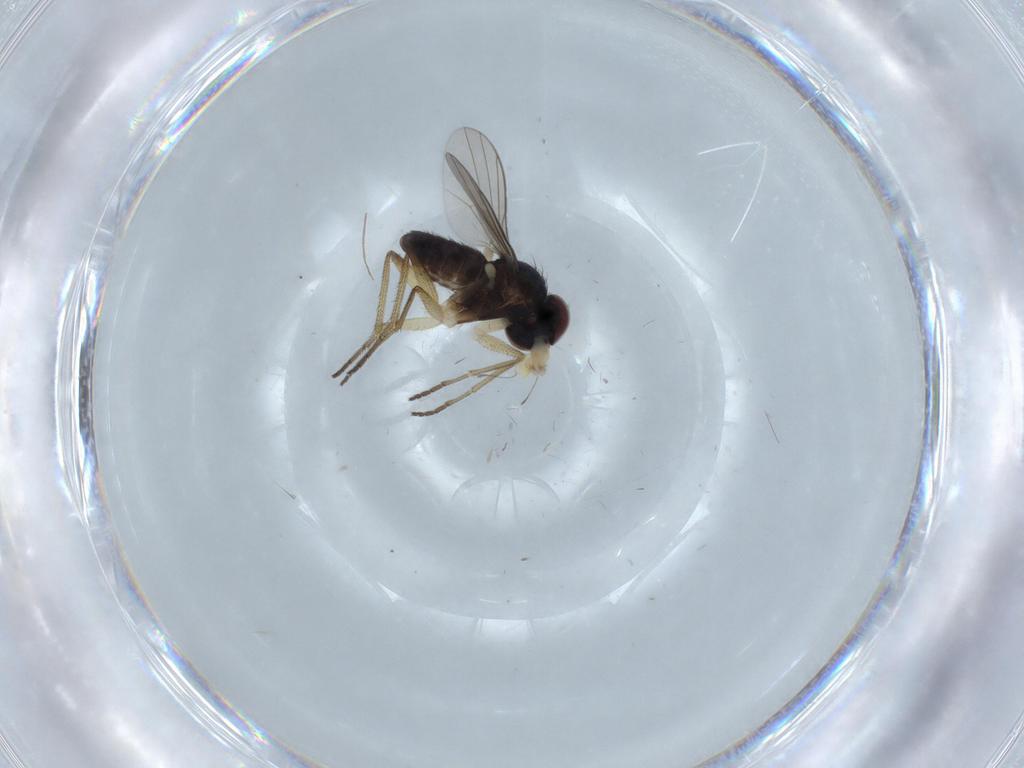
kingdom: Animalia
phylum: Arthropoda
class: Insecta
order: Diptera
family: Dolichopodidae
